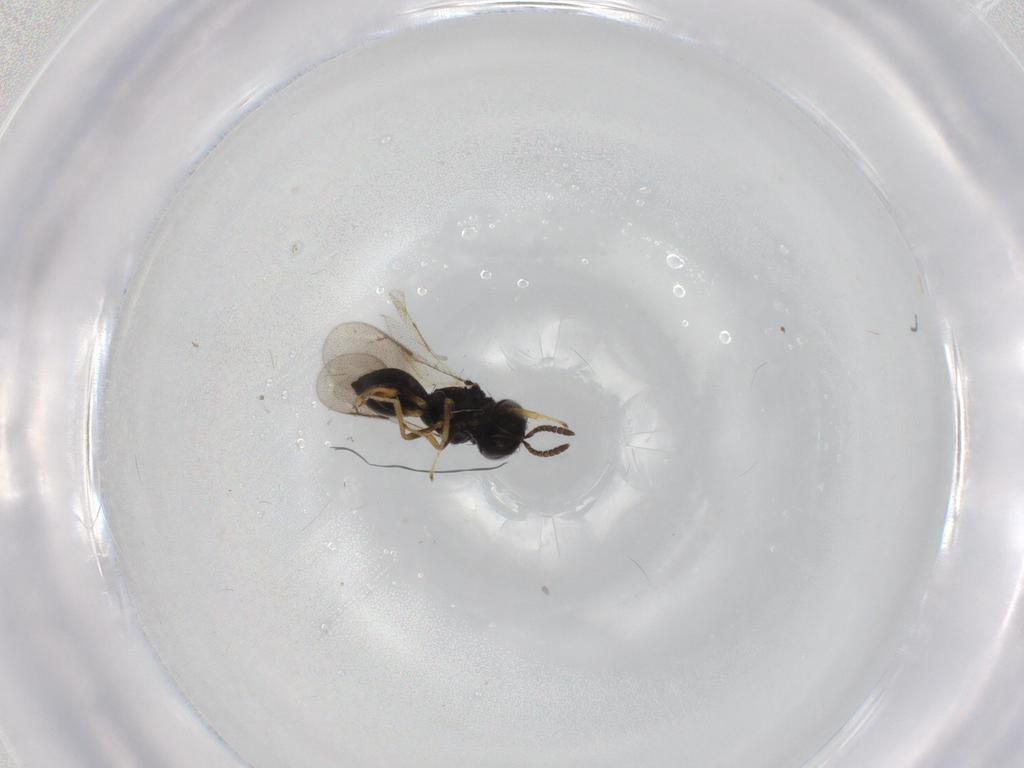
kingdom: Animalia
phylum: Arthropoda
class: Insecta
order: Hymenoptera
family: Pteromalidae
